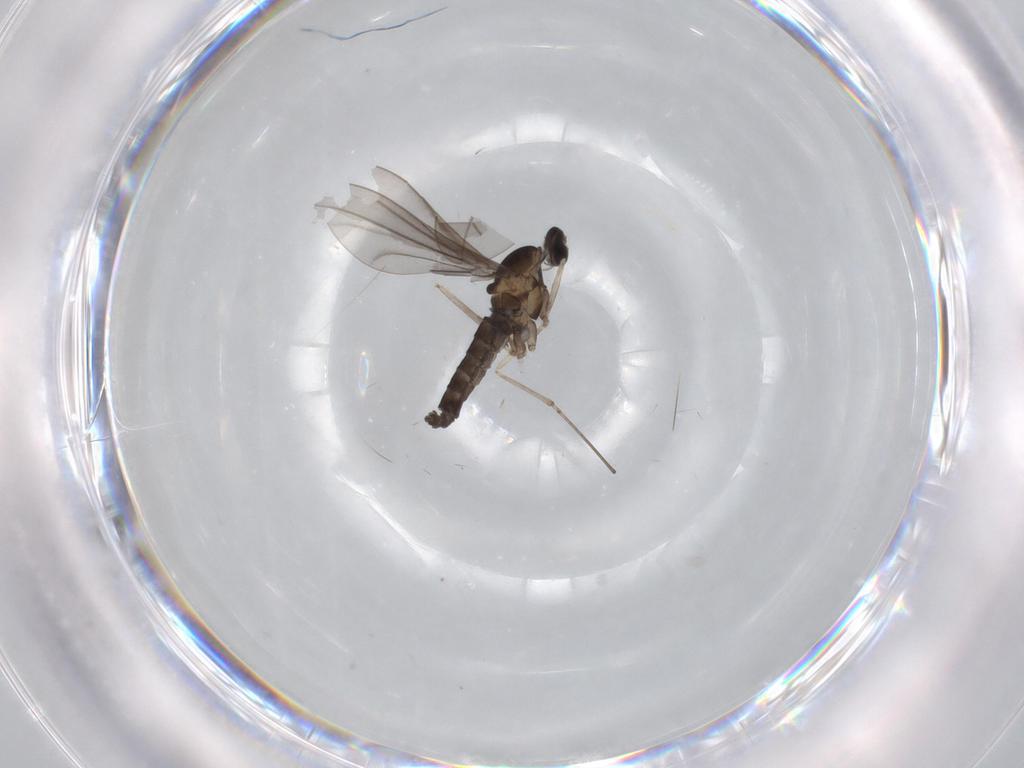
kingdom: Animalia
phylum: Arthropoda
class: Insecta
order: Diptera
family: Cecidomyiidae
